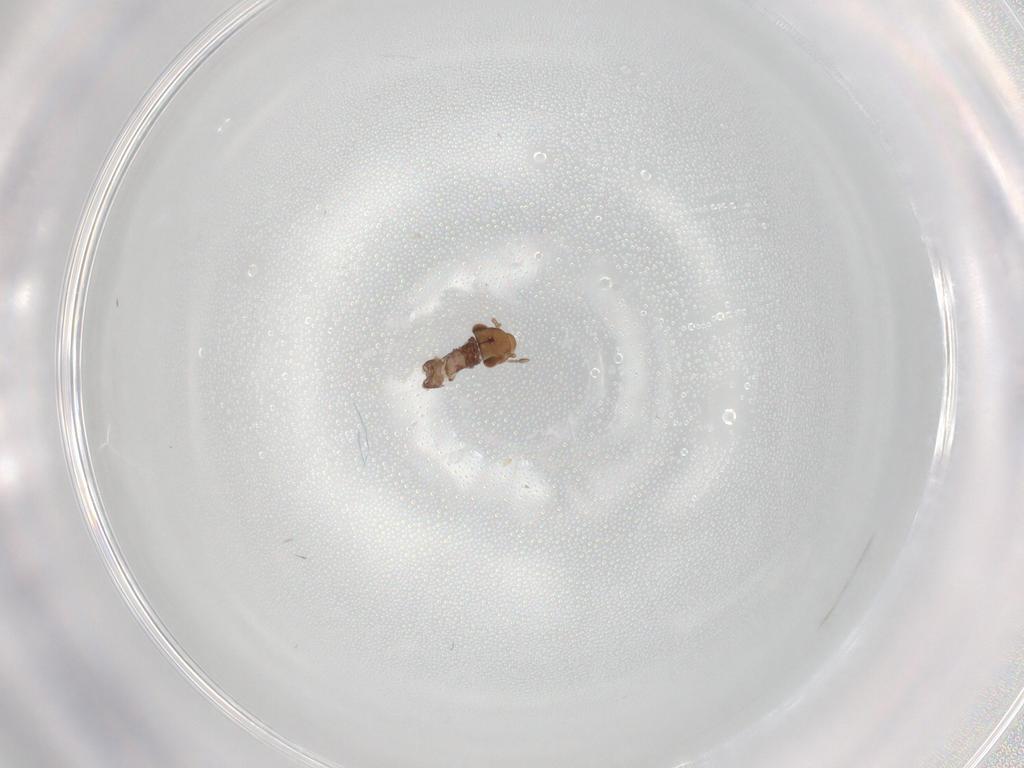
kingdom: Animalia
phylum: Arthropoda
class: Insecta
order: Psocodea
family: Lepidopsocidae
